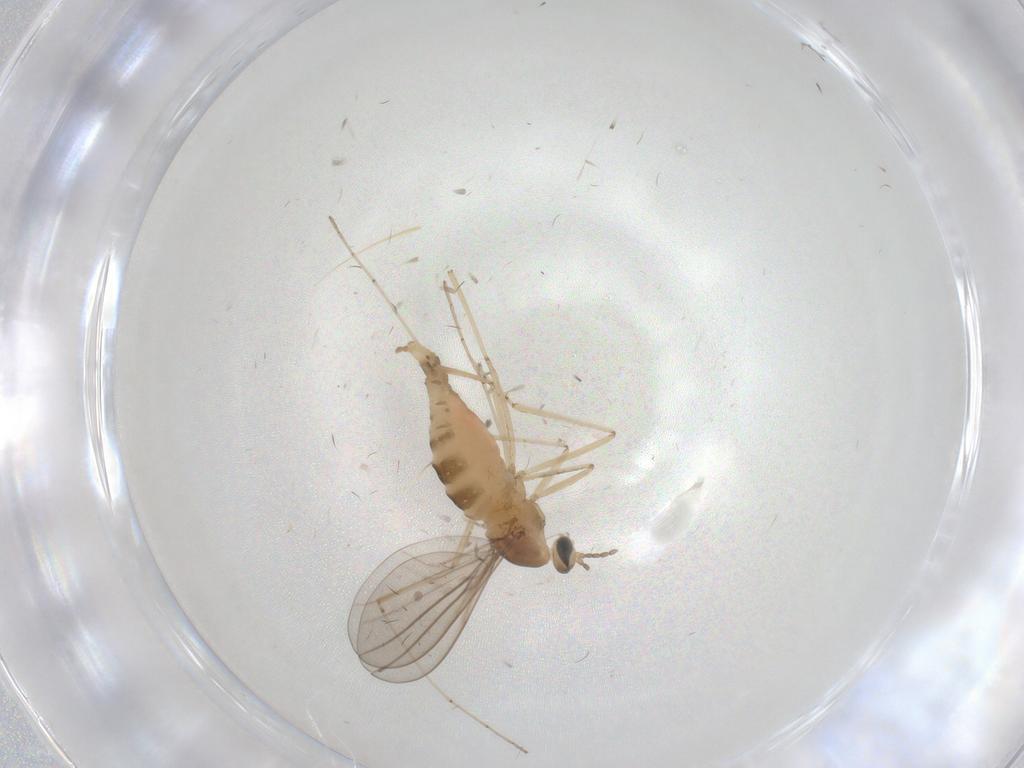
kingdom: Animalia
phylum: Arthropoda
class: Insecta
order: Diptera
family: Cecidomyiidae
